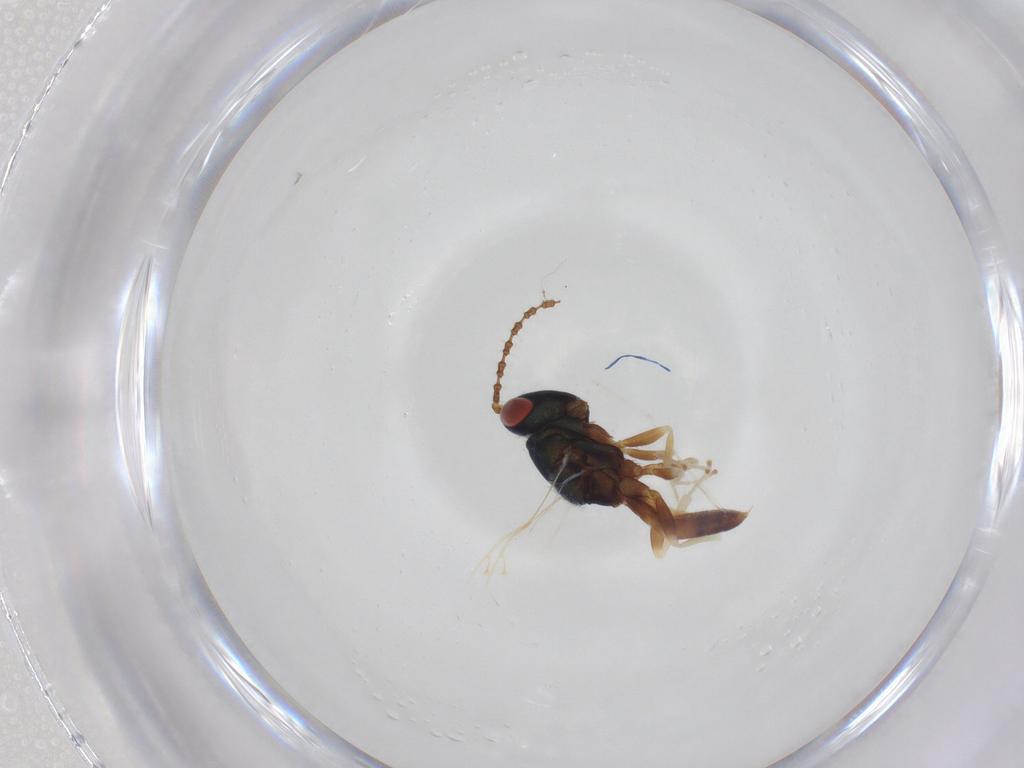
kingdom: Animalia
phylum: Arthropoda
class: Insecta
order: Hymenoptera
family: Pteromalidae
